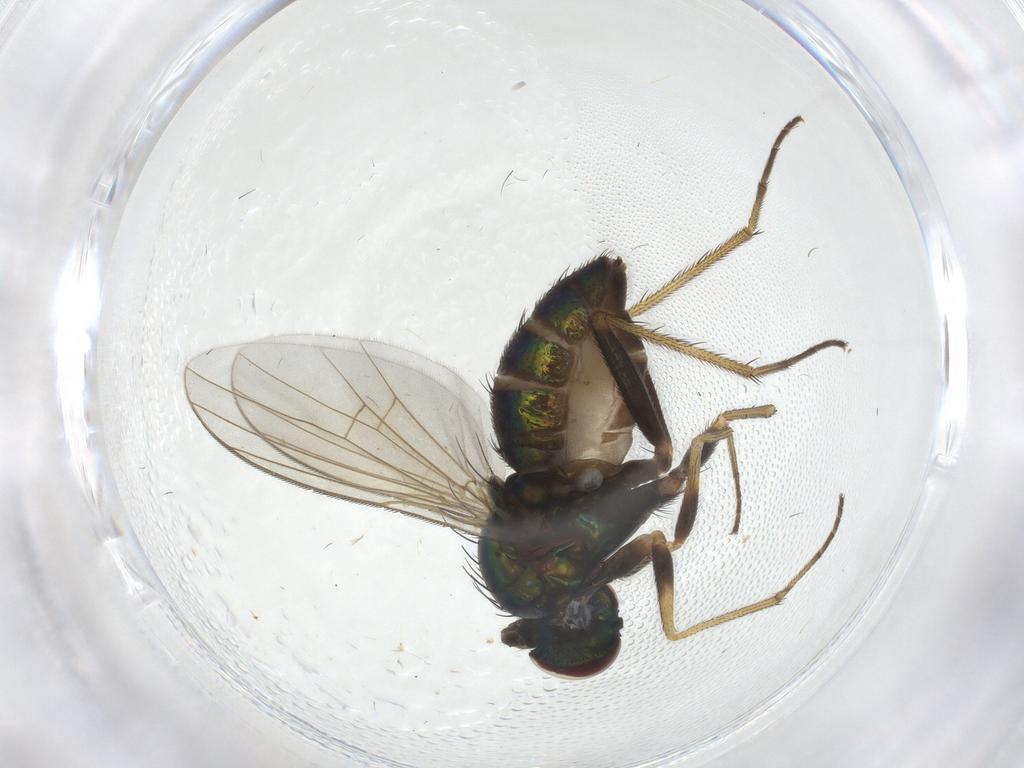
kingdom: Animalia
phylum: Arthropoda
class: Insecta
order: Diptera
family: Dolichopodidae
